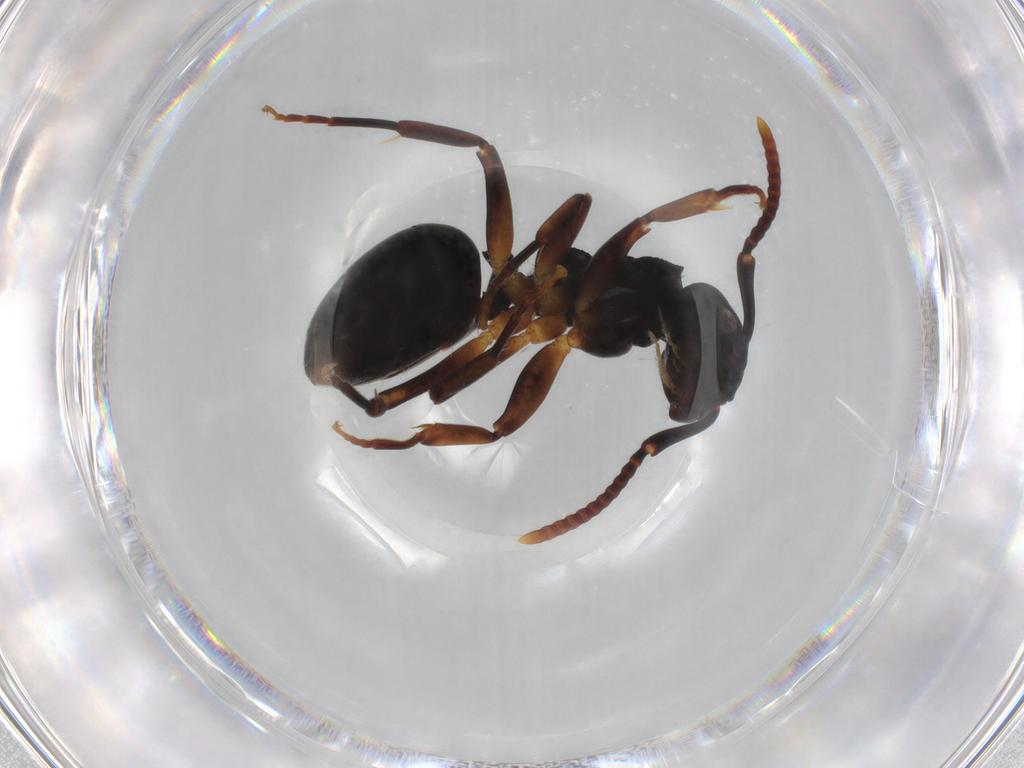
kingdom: Animalia
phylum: Arthropoda
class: Insecta
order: Hymenoptera
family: Formicidae
